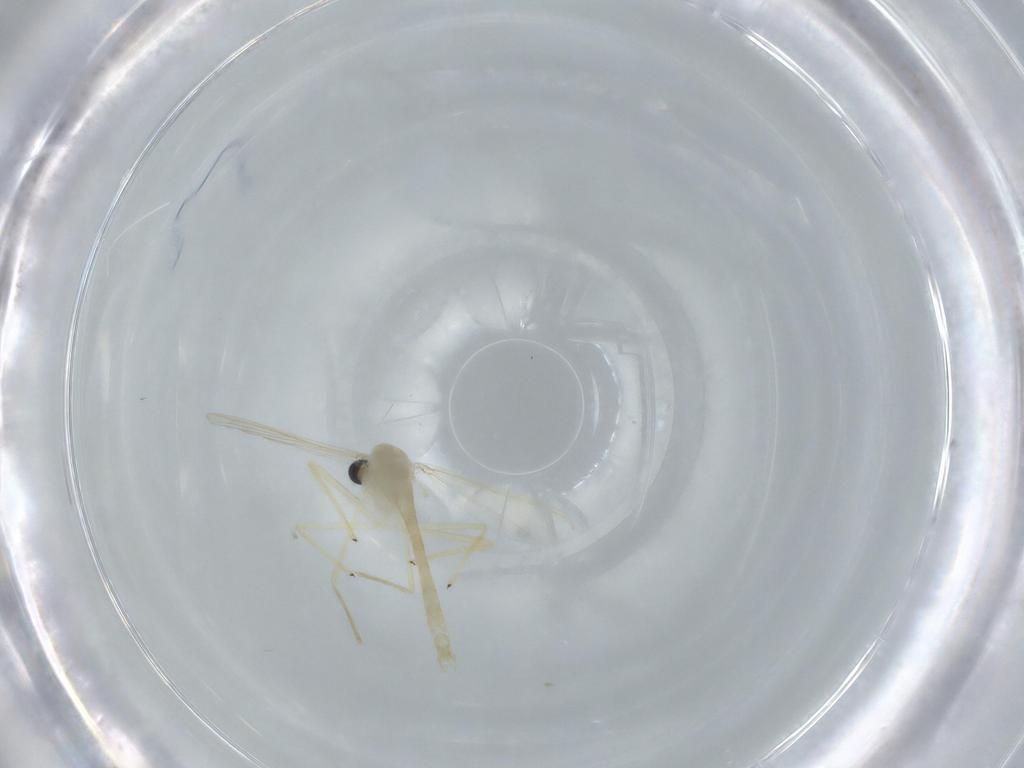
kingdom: Animalia
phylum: Arthropoda
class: Insecta
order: Diptera
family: Chironomidae
